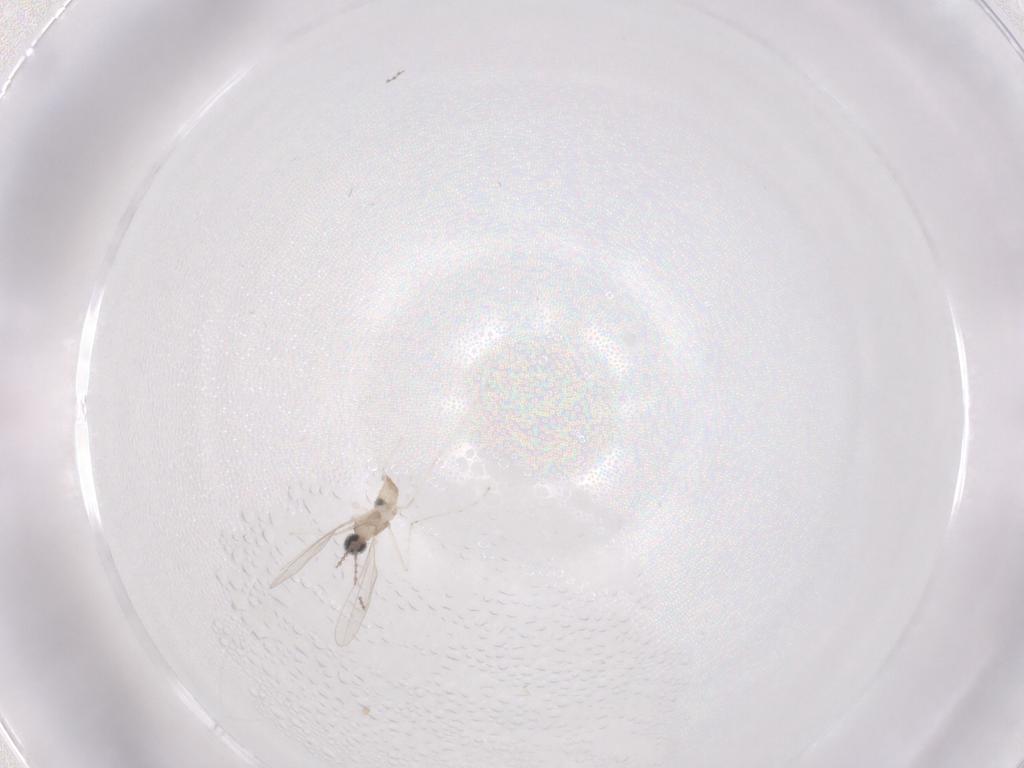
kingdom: Animalia
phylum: Arthropoda
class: Insecta
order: Diptera
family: Cecidomyiidae
